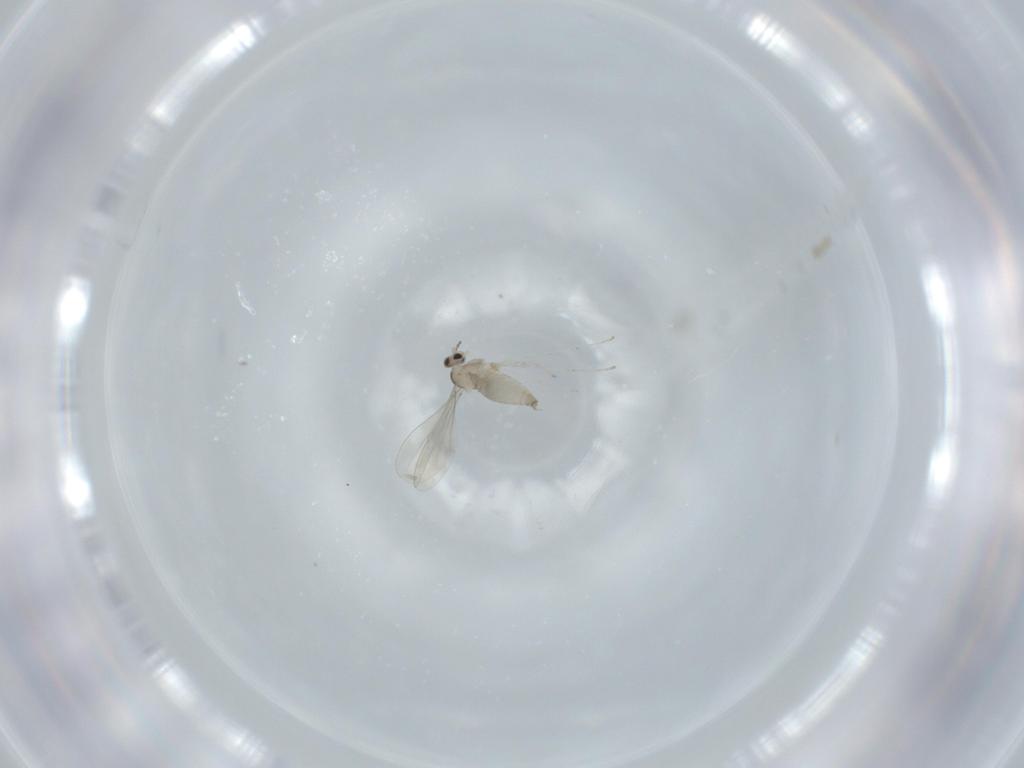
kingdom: Animalia
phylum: Arthropoda
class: Insecta
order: Diptera
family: Cecidomyiidae
